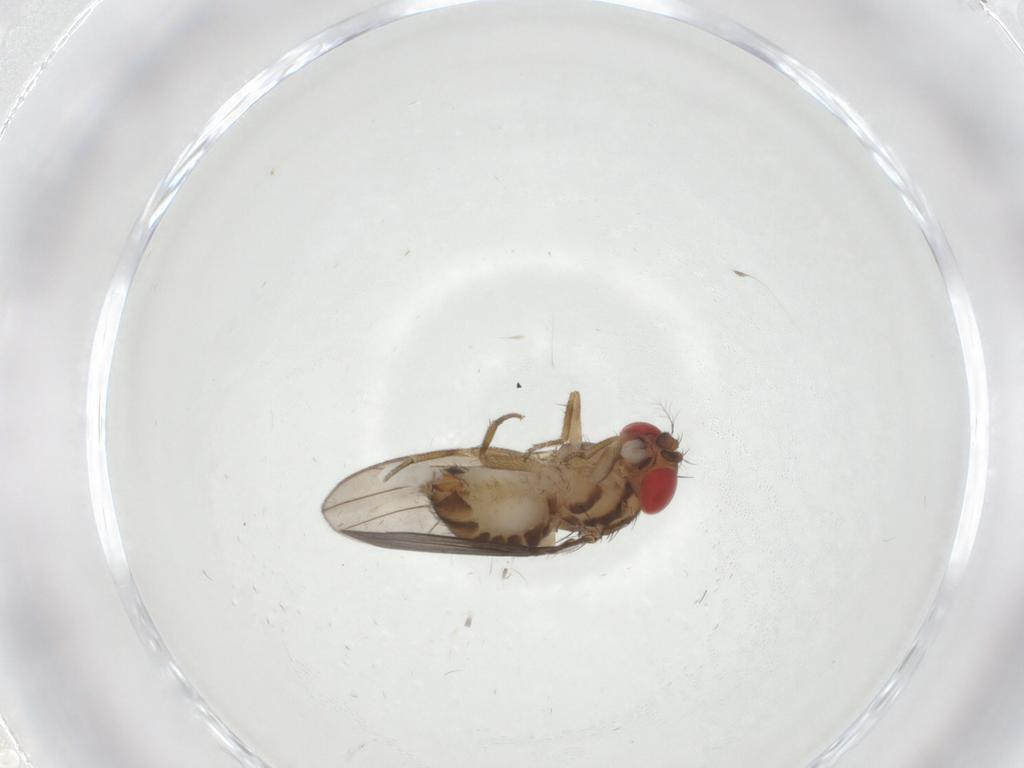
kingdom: Animalia
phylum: Arthropoda
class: Insecta
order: Diptera
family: Drosophilidae
